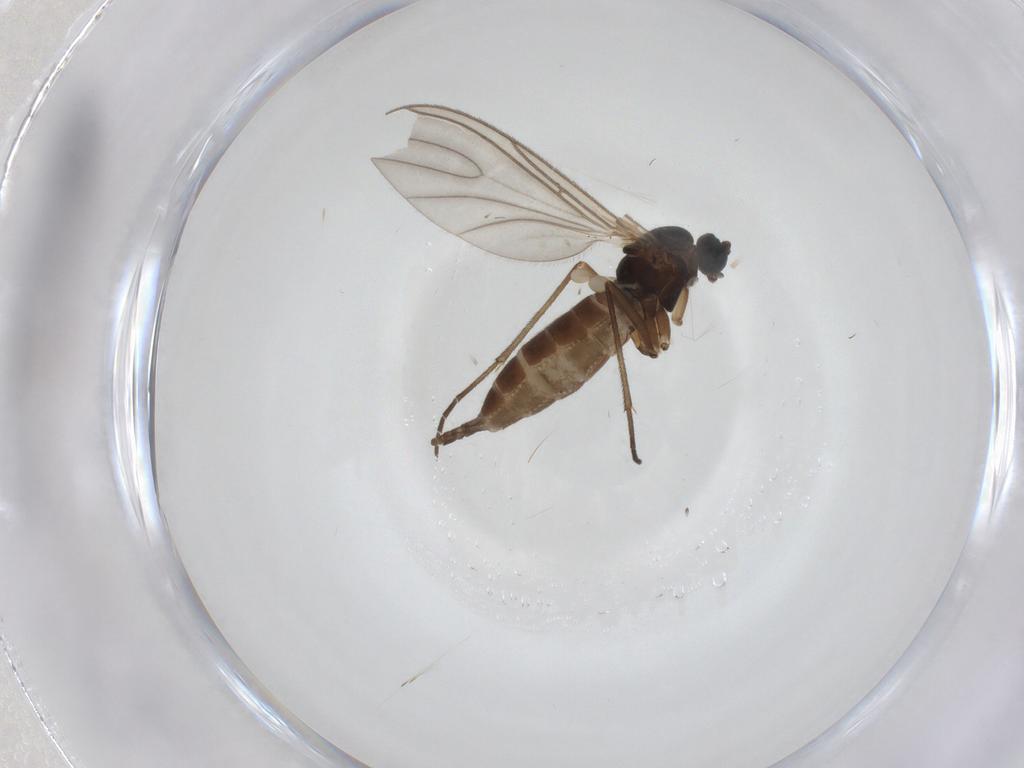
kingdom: Animalia
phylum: Arthropoda
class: Insecta
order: Diptera
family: Sciaridae
